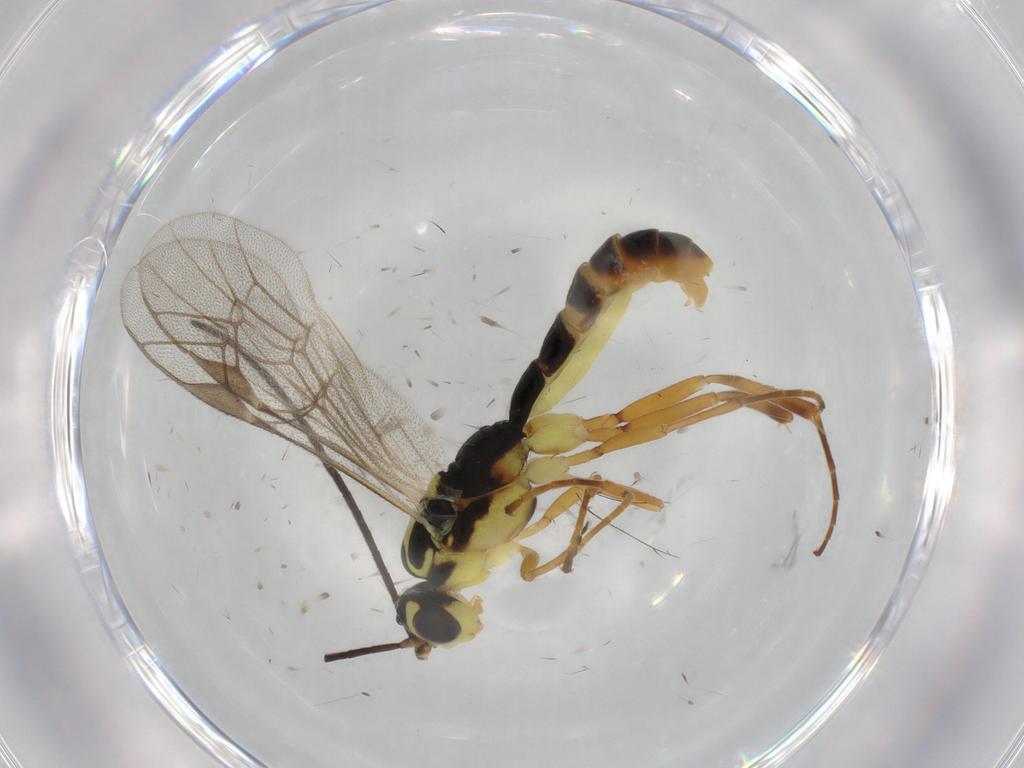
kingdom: Animalia
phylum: Arthropoda
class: Insecta
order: Hymenoptera
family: Ichneumonidae
